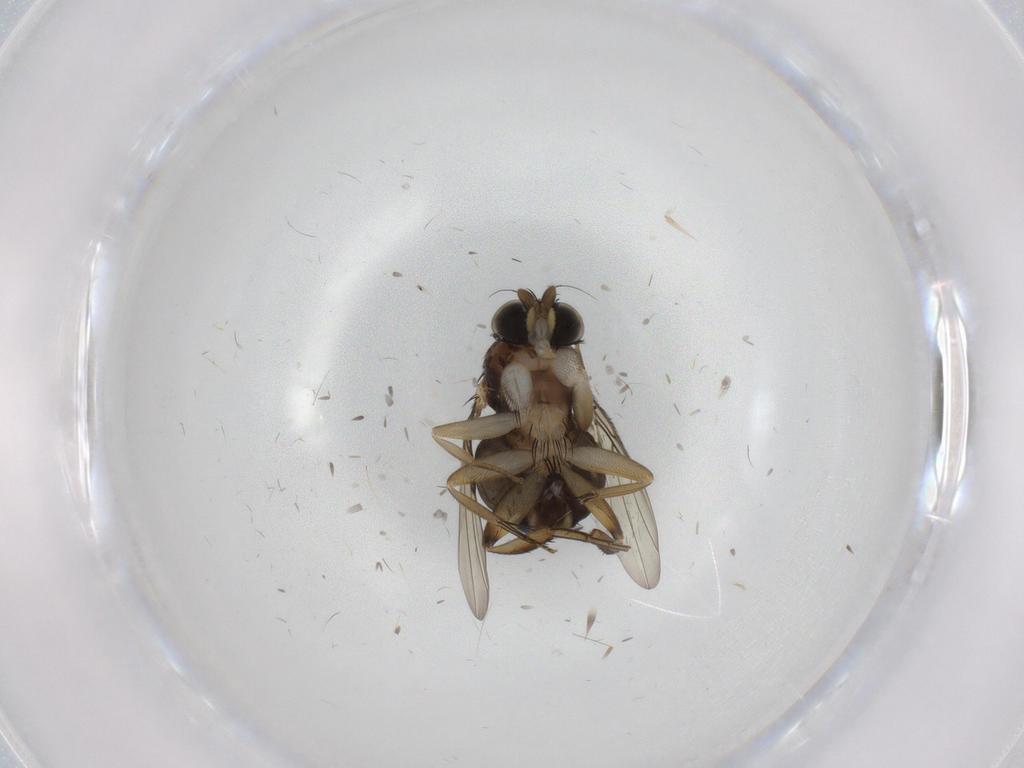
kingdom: Animalia
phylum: Arthropoda
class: Insecta
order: Diptera
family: Phoridae
